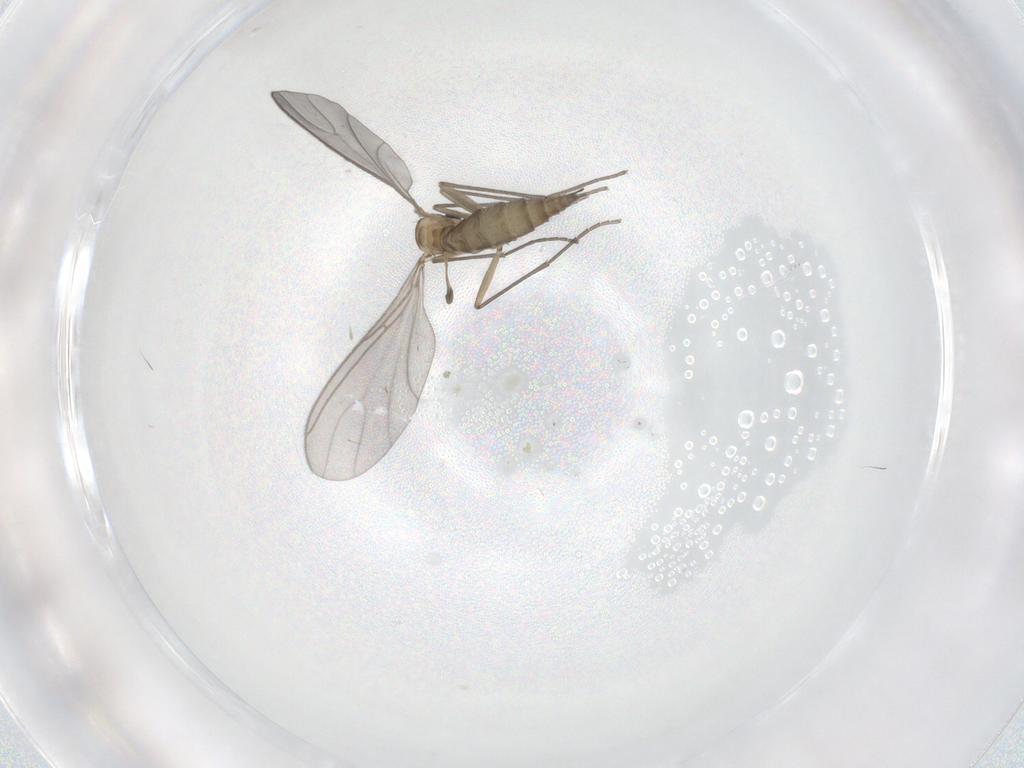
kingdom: Animalia
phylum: Arthropoda
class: Insecta
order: Diptera
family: Sciaridae
